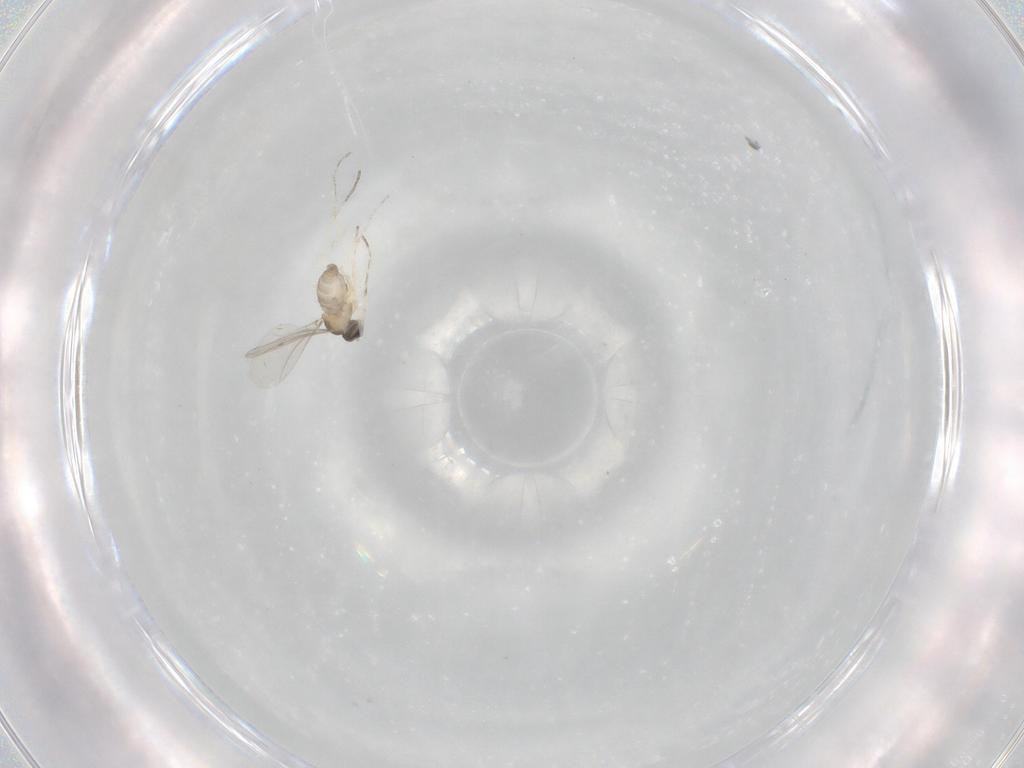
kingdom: Animalia
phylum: Arthropoda
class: Insecta
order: Diptera
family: Cecidomyiidae
